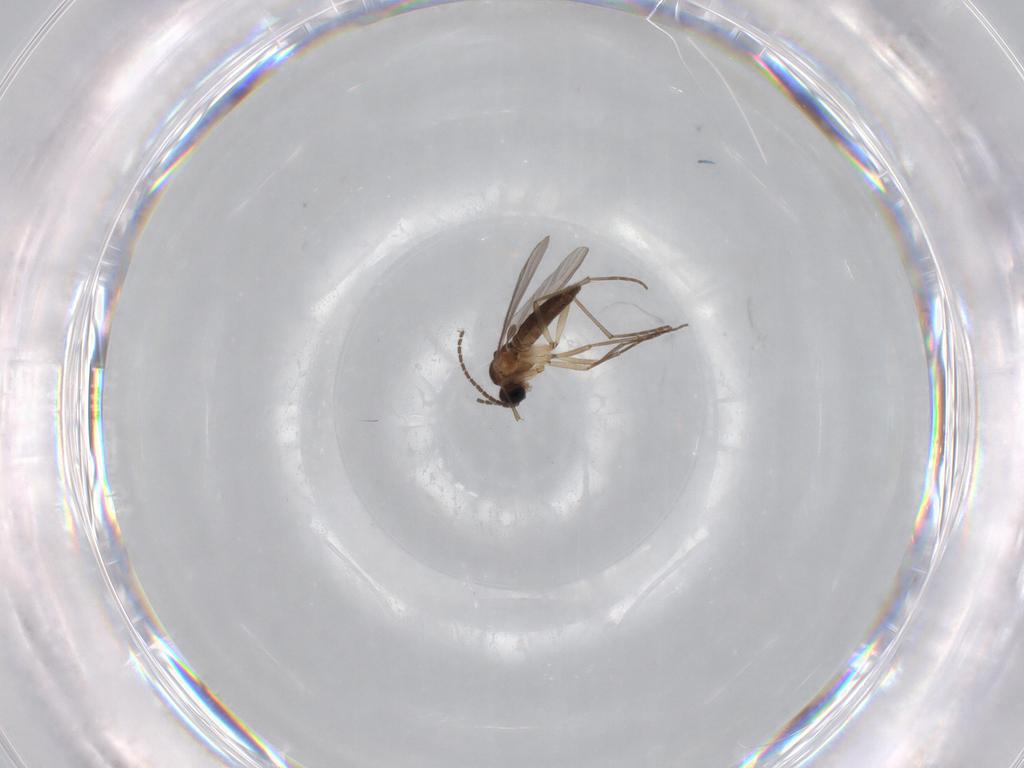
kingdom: Animalia
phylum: Arthropoda
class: Insecta
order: Diptera
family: Sciaridae
